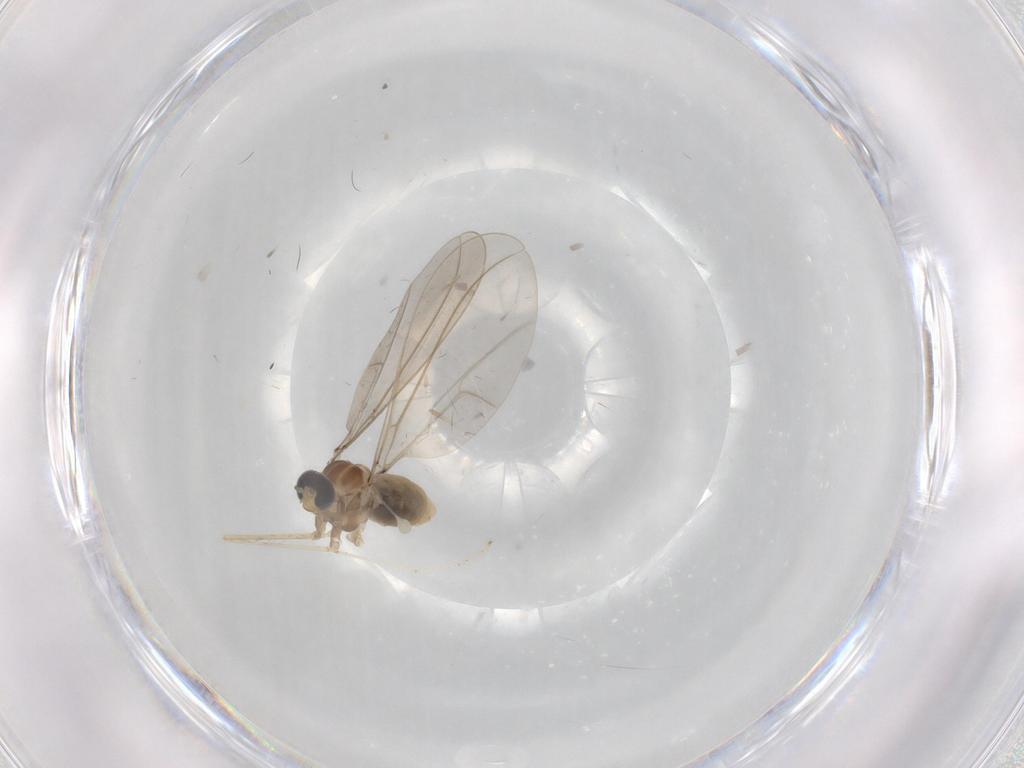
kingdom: Animalia
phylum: Arthropoda
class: Insecta
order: Diptera
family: Cecidomyiidae
